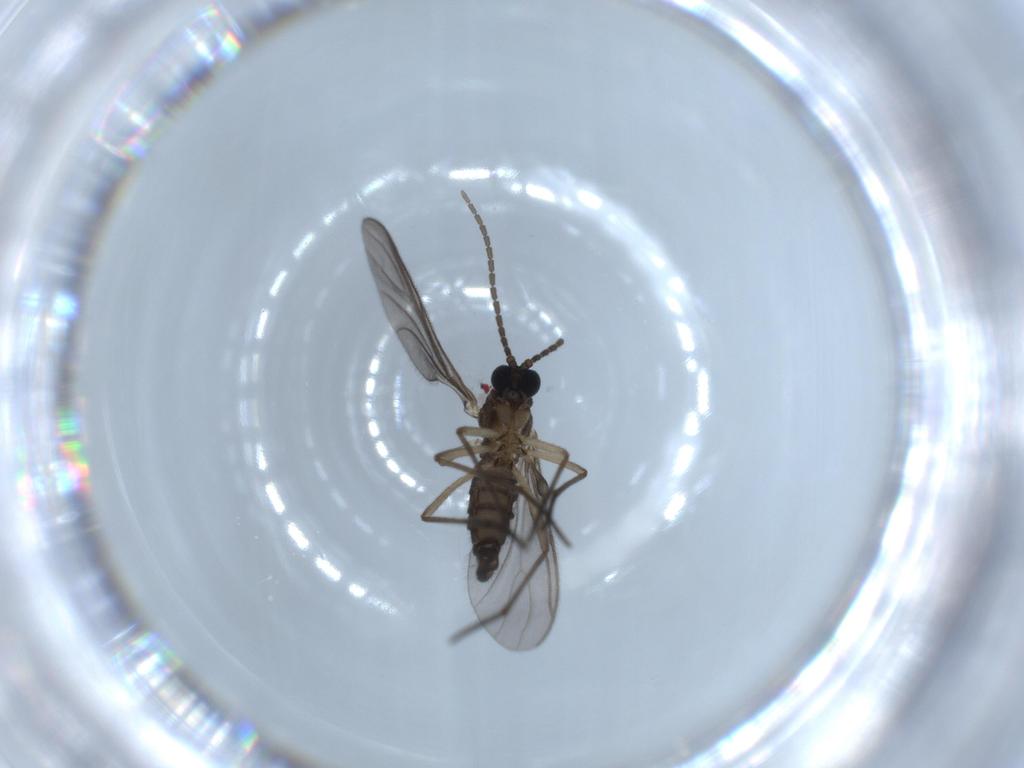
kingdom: Animalia
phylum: Arthropoda
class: Insecta
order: Diptera
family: Sciaridae
